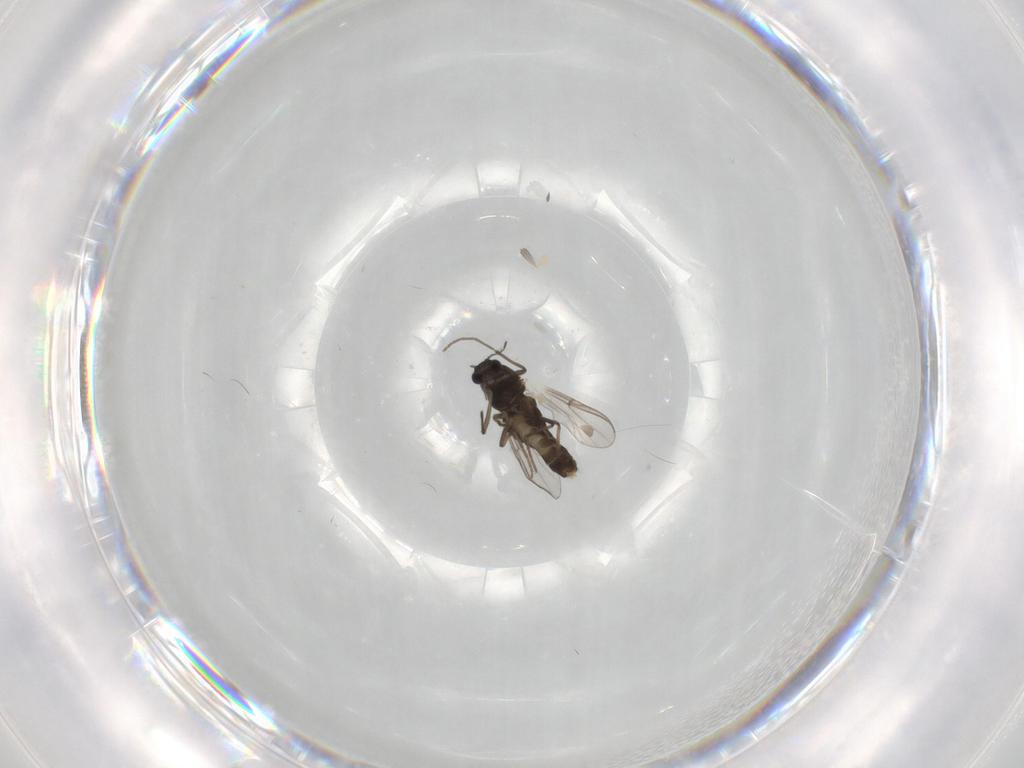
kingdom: Animalia
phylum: Arthropoda
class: Insecta
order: Diptera
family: Chironomidae
